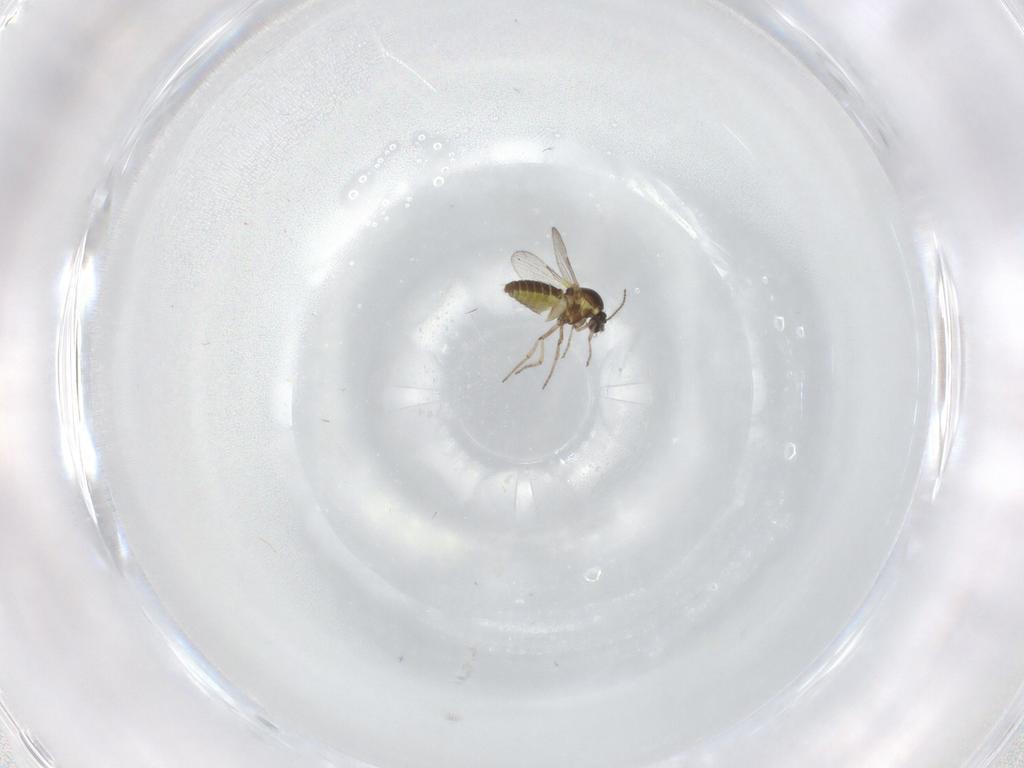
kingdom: Animalia
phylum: Arthropoda
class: Insecta
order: Diptera
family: Ceratopogonidae
